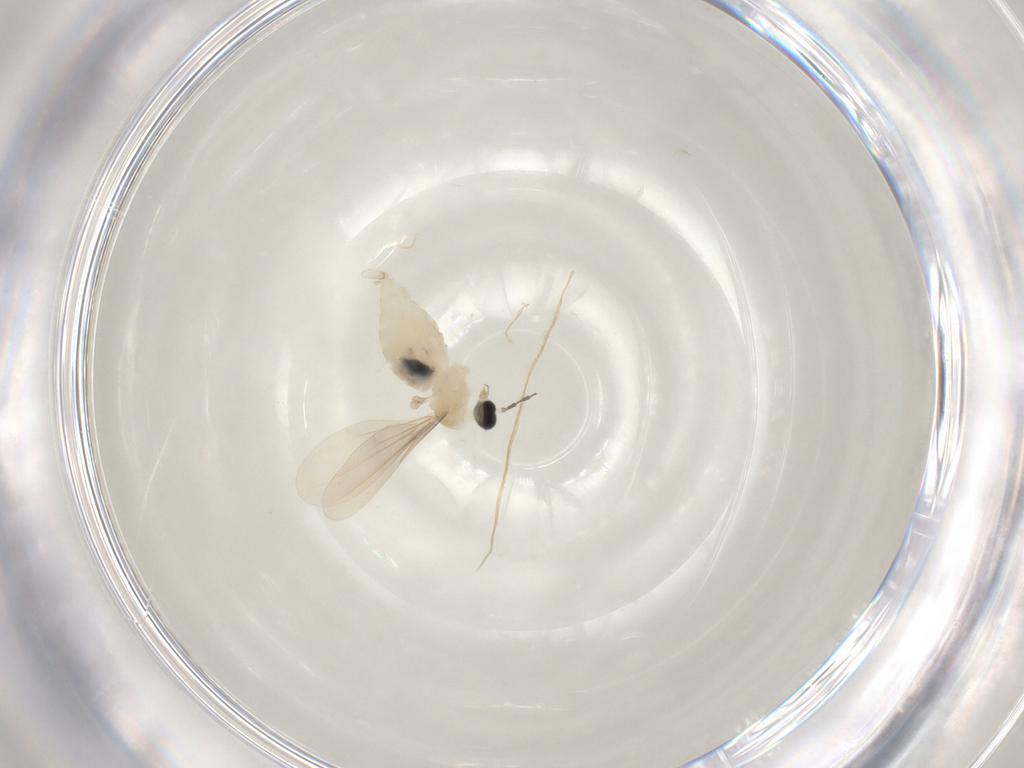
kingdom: Animalia
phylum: Arthropoda
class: Insecta
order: Diptera
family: Cecidomyiidae
